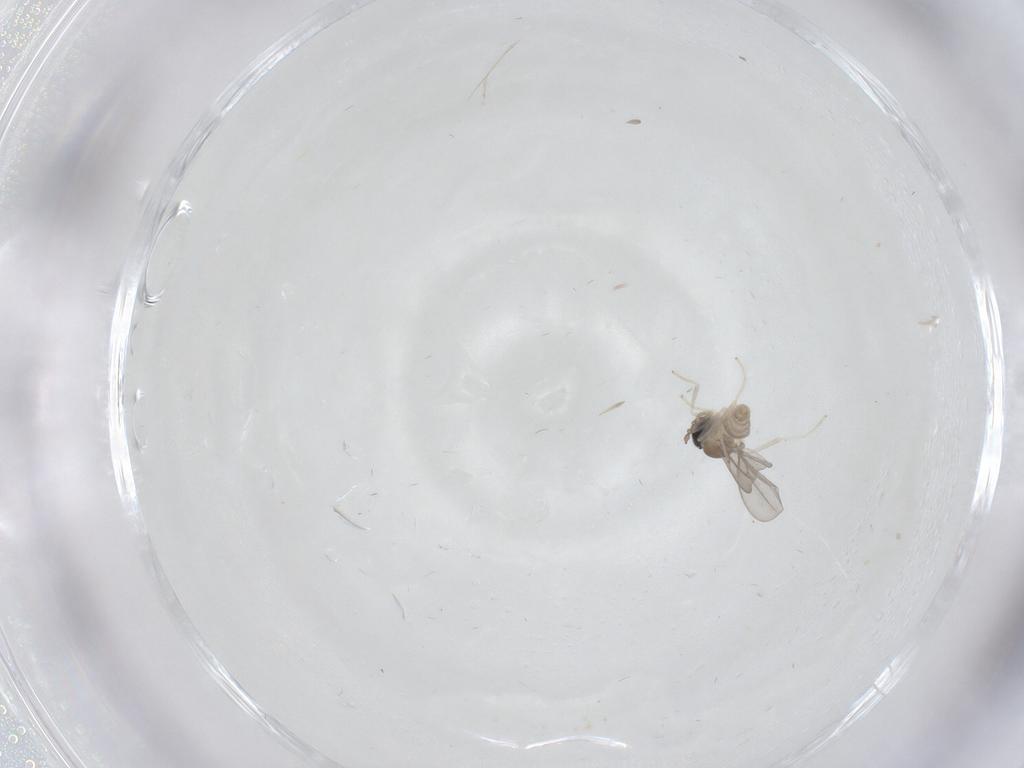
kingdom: Animalia
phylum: Arthropoda
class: Insecta
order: Diptera
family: Cecidomyiidae
